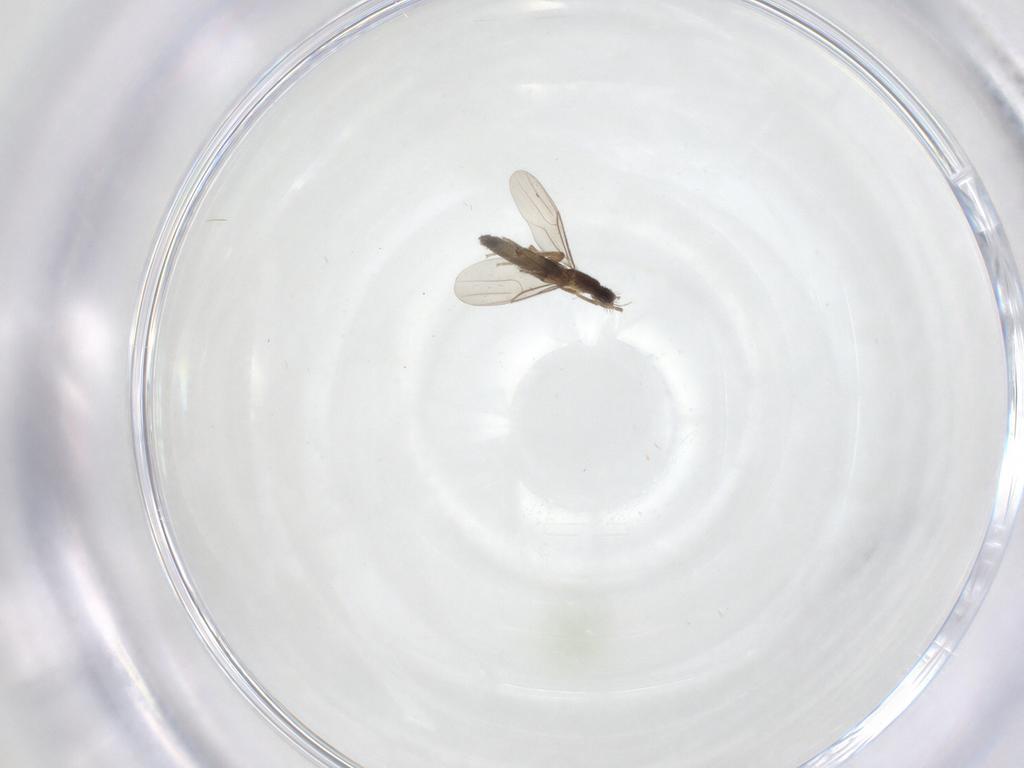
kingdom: Animalia
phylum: Arthropoda
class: Insecta
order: Diptera
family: Phoridae
